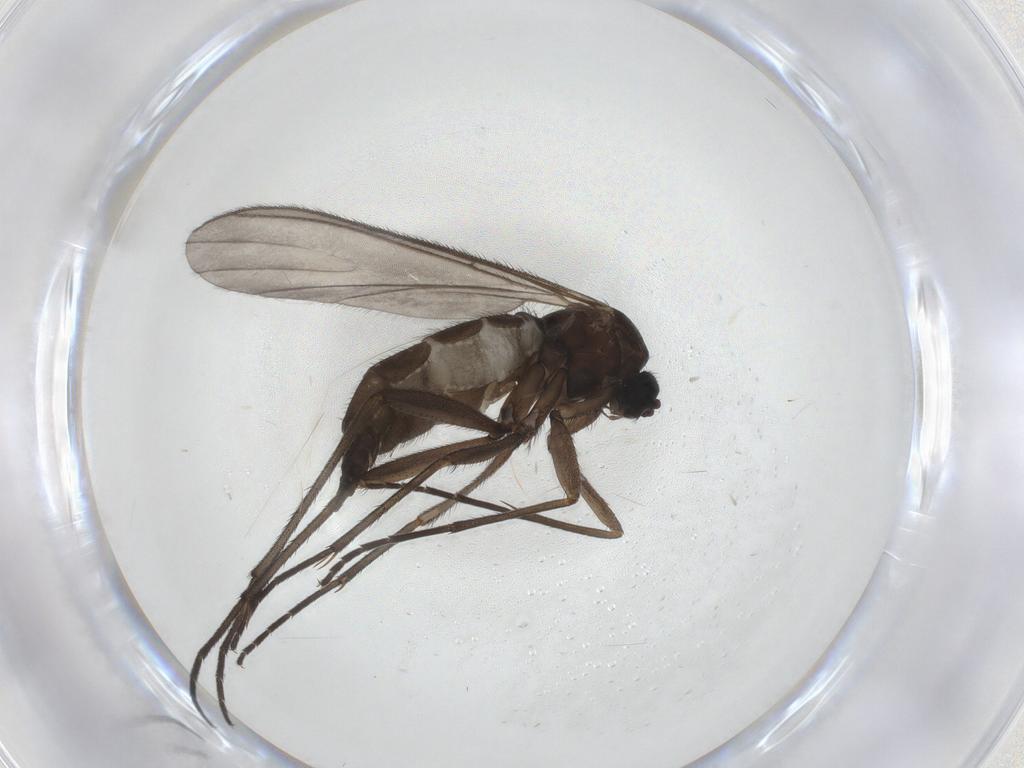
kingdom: Animalia
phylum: Arthropoda
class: Insecta
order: Diptera
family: Sciaridae
